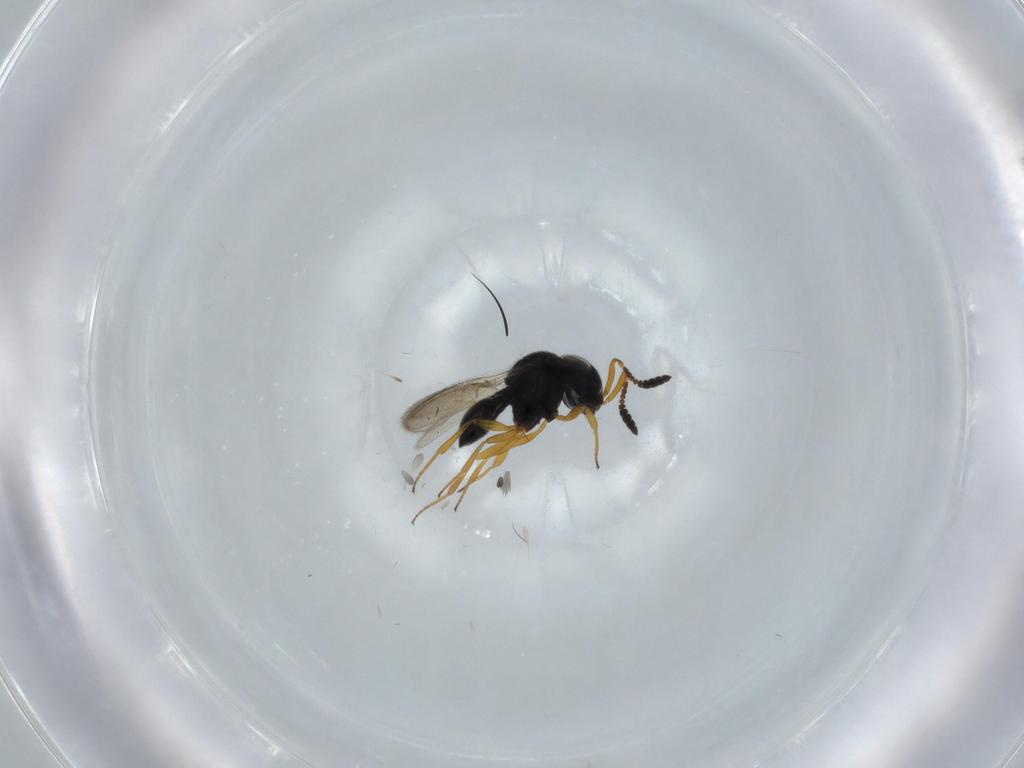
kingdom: Animalia
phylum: Arthropoda
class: Insecta
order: Hymenoptera
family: Scelionidae
